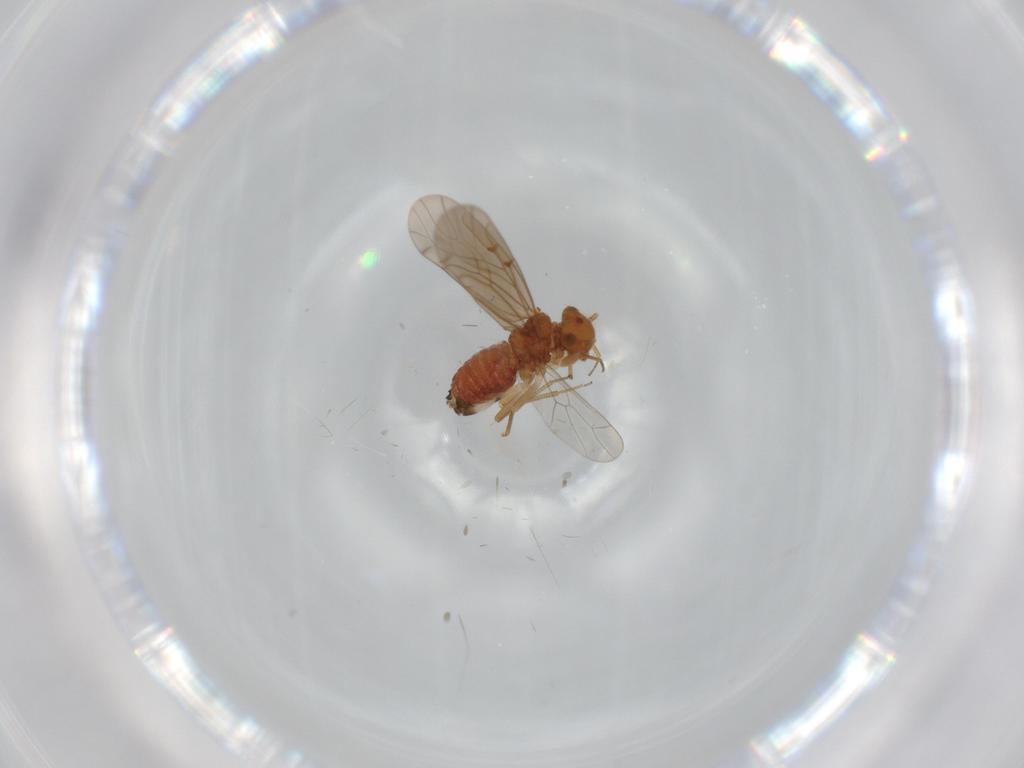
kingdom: Animalia
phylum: Arthropoda
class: Insecta
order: Psocodea
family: Ectopsocidae
